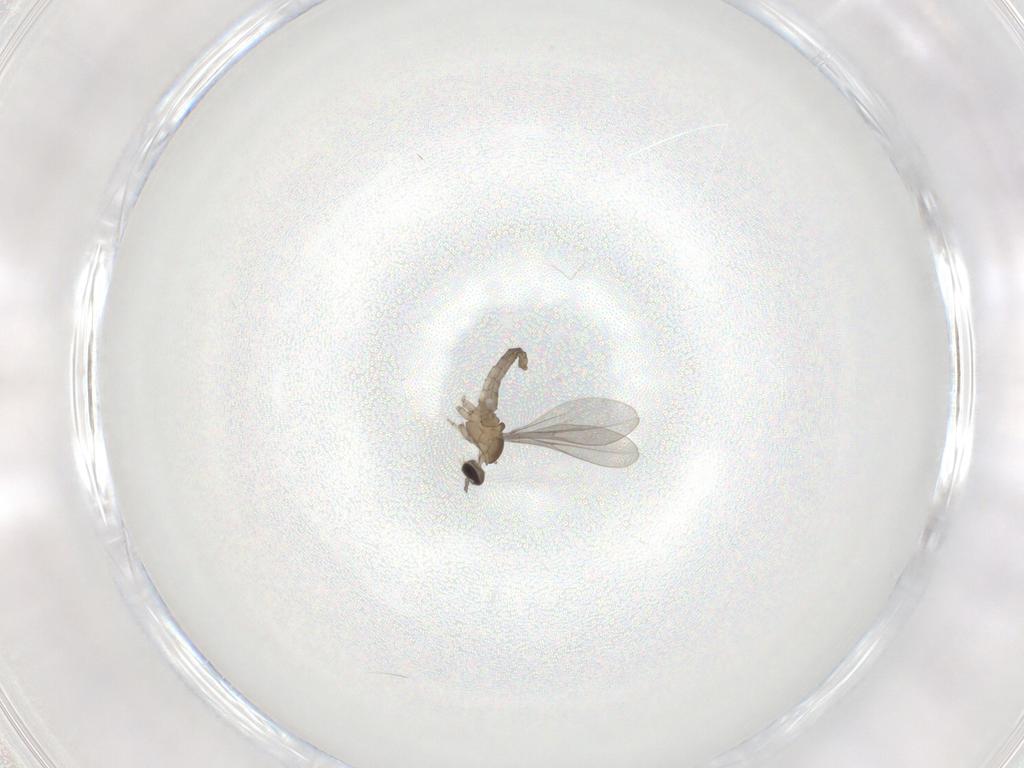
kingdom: Animalia
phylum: Arthropoda
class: Insecta
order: Diptera
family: Cecidomyiidae
